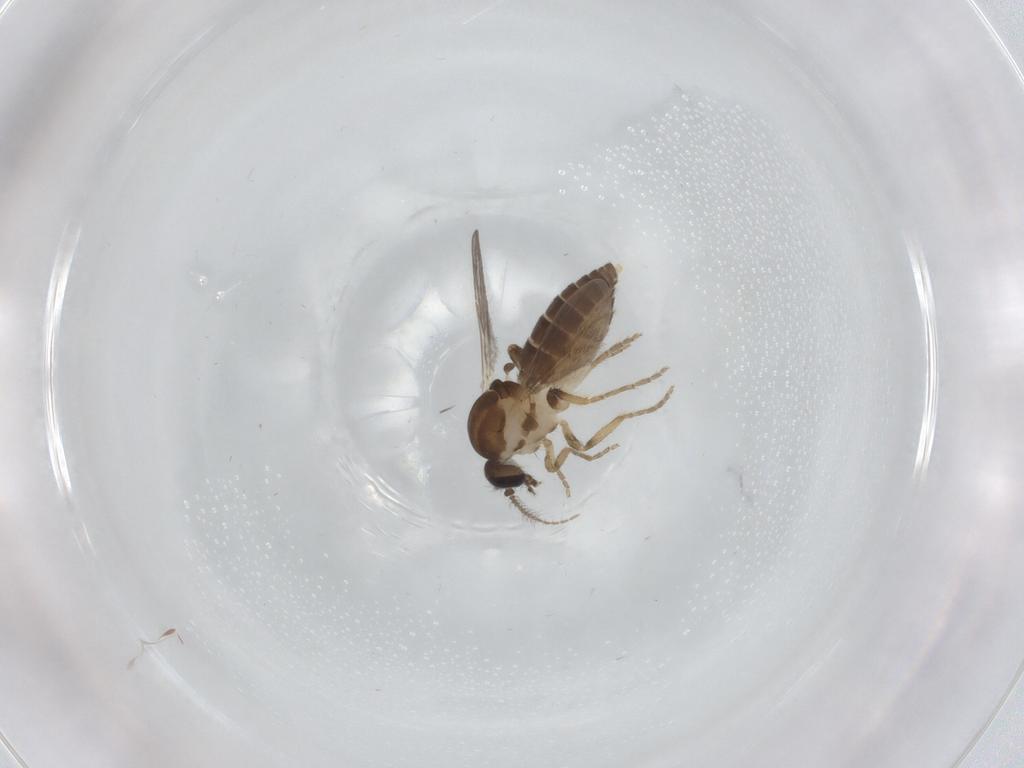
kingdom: Animalia
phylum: Arthropoda
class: Insecta
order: Diptera
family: Ceratopogonidae
